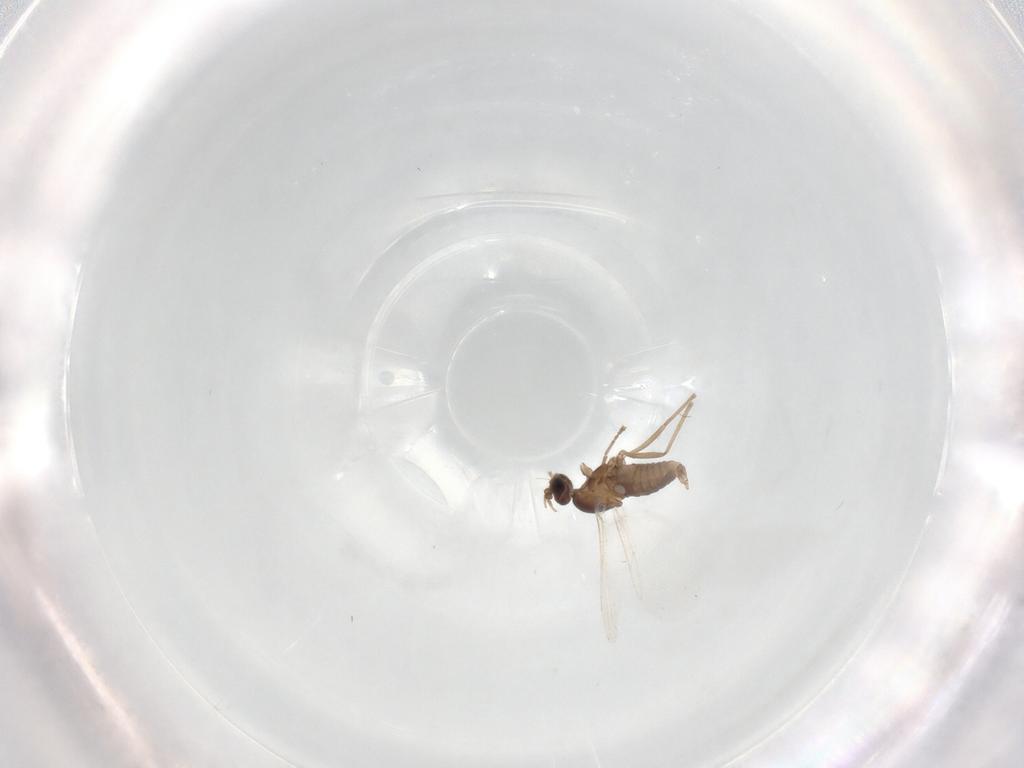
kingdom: Animalia
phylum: Arthropoda
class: Insecta
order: Diptera
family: Cecidomyiidae
